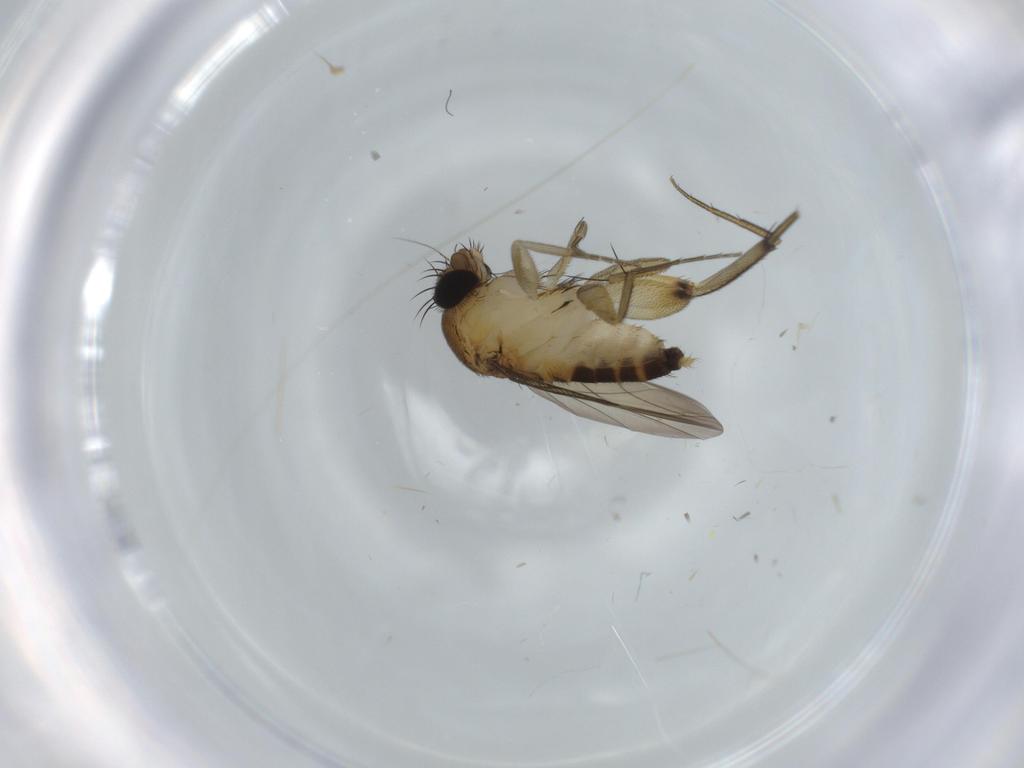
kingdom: Animalia
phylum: Arthropoda
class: Insecta
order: Diptera
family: Phoridae
